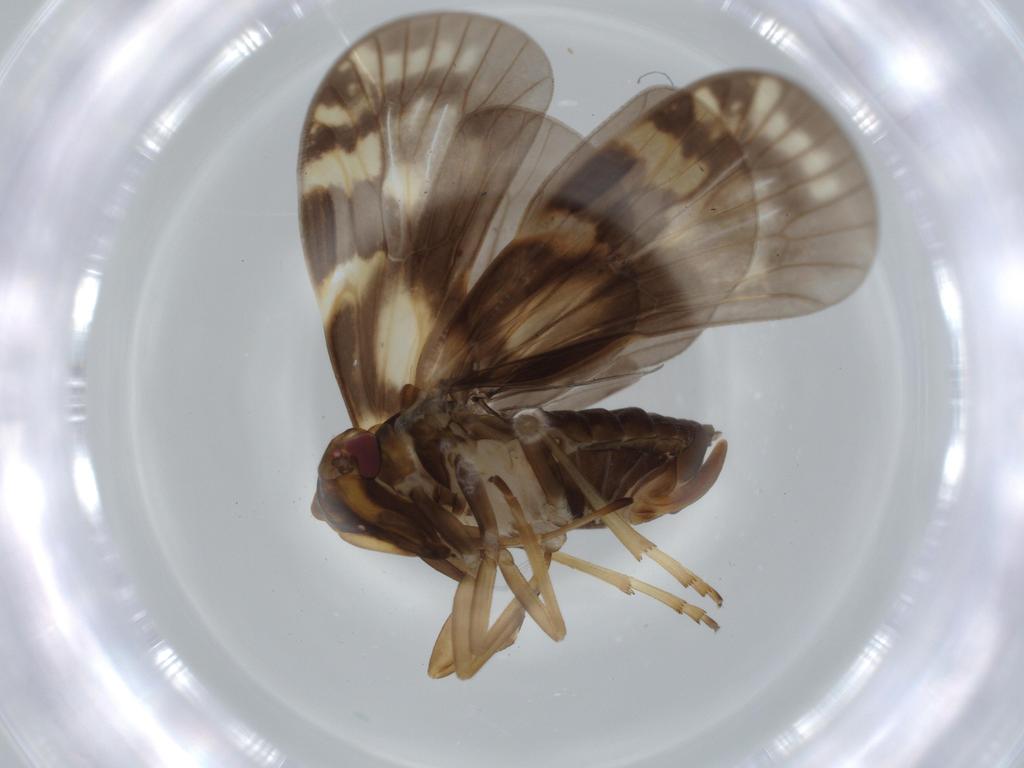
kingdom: Animalia
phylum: Arthropoda
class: Insecta
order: Hemiptera
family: Cixiidae
